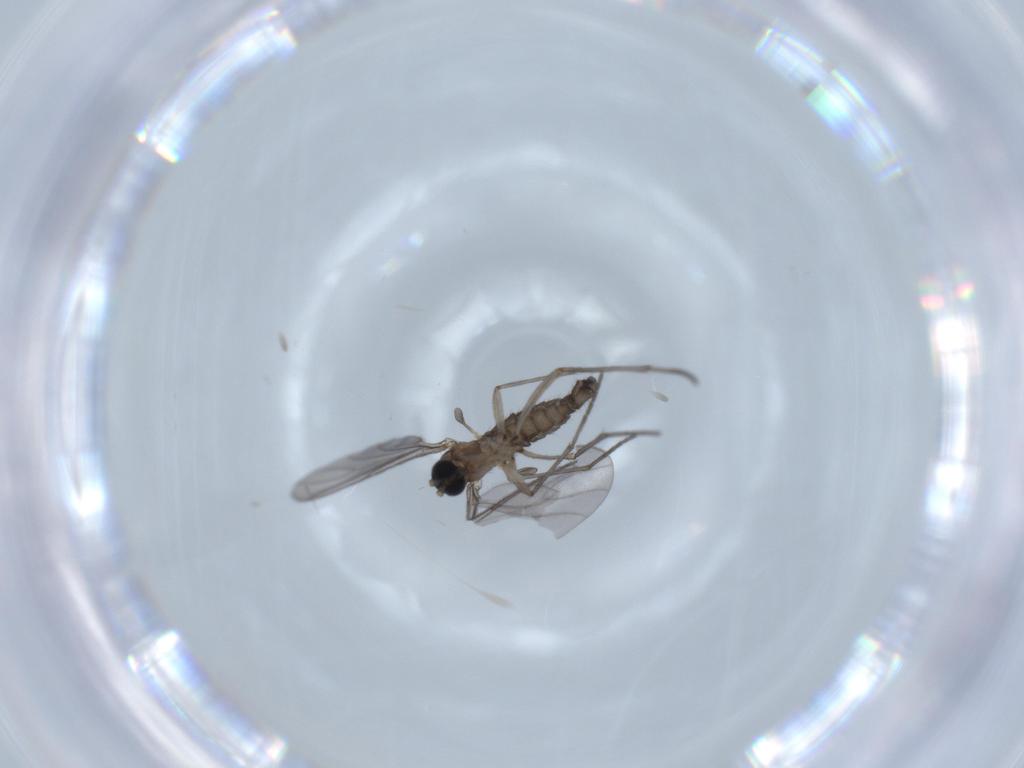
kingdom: Animalia
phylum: Arthropoda
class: Insecta
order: Diptera
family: Sciaridae
